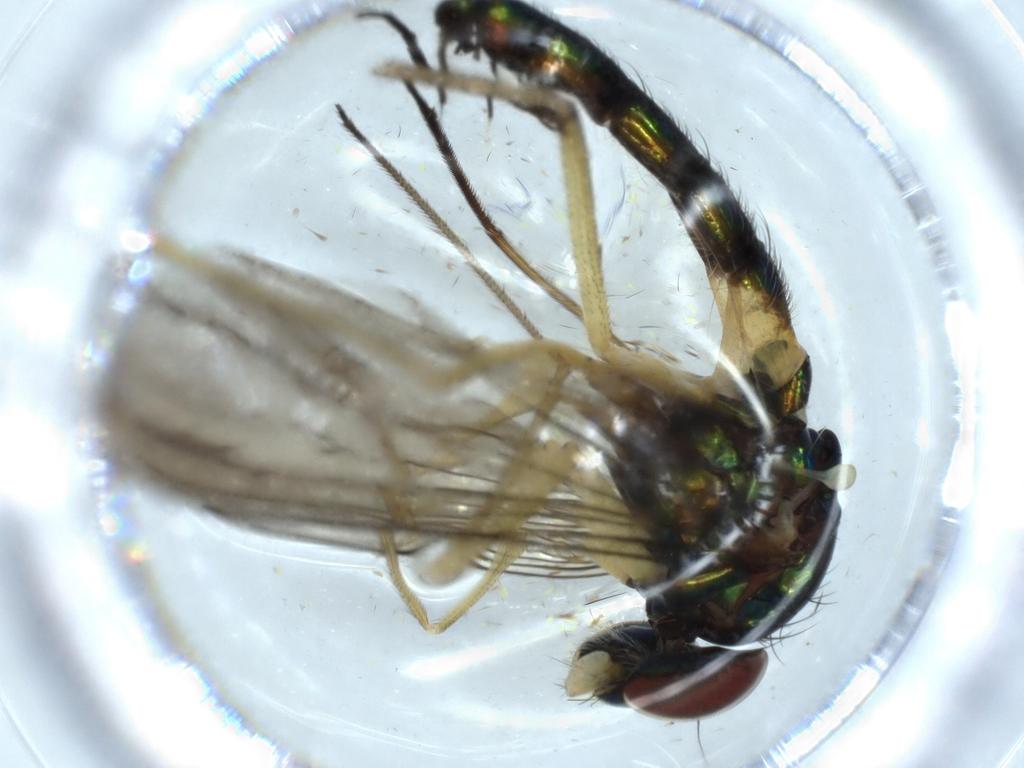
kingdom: Animalia
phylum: Arthropoda
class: Insecta
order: Diptera
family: Dolichopodidae
